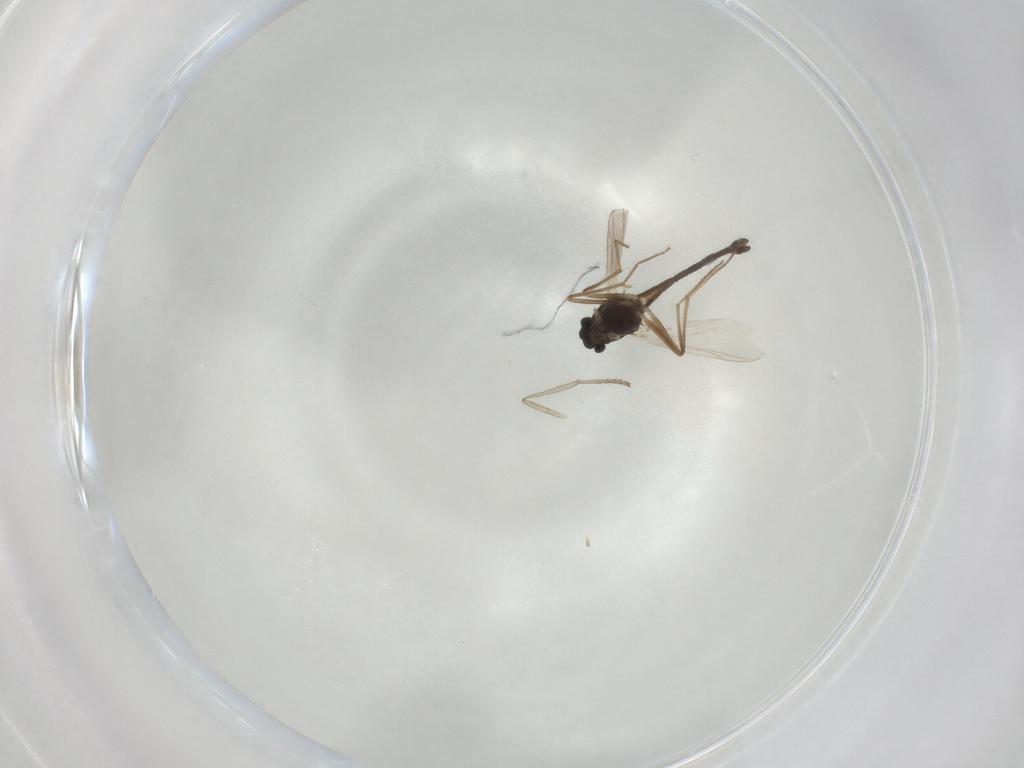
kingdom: Animalia
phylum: Arthropoda
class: Insecta
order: Diptera
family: Chironomidae
